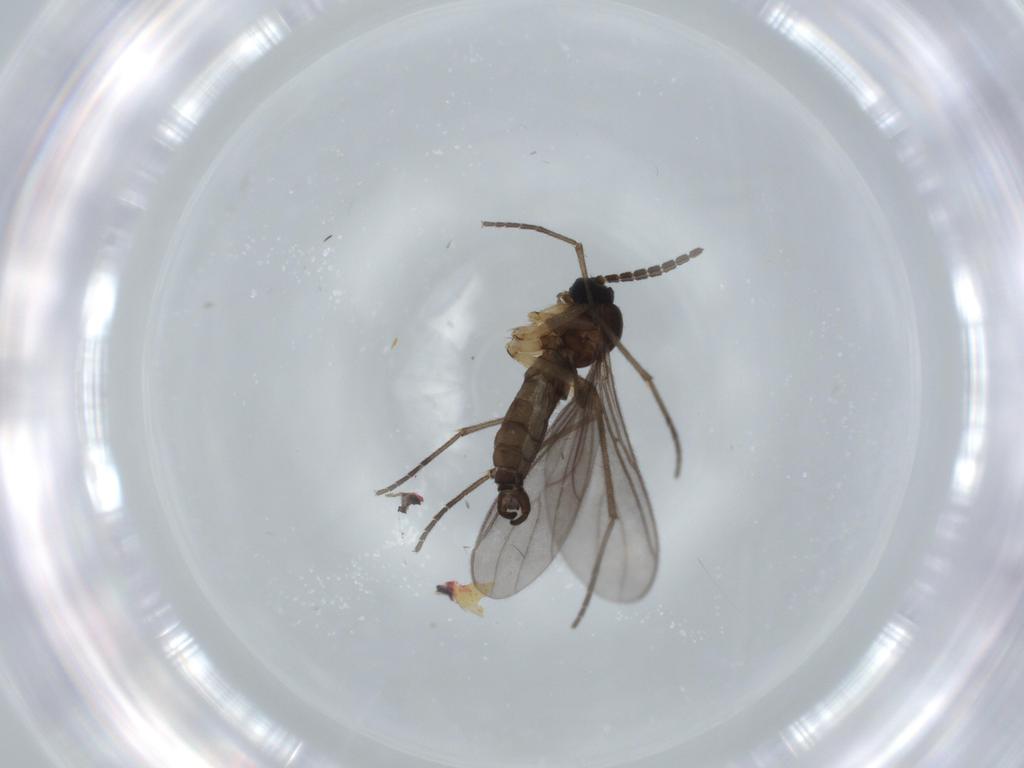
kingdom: Animalia
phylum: Arthropoda
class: Insecta
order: Diptera
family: Sciaridae
